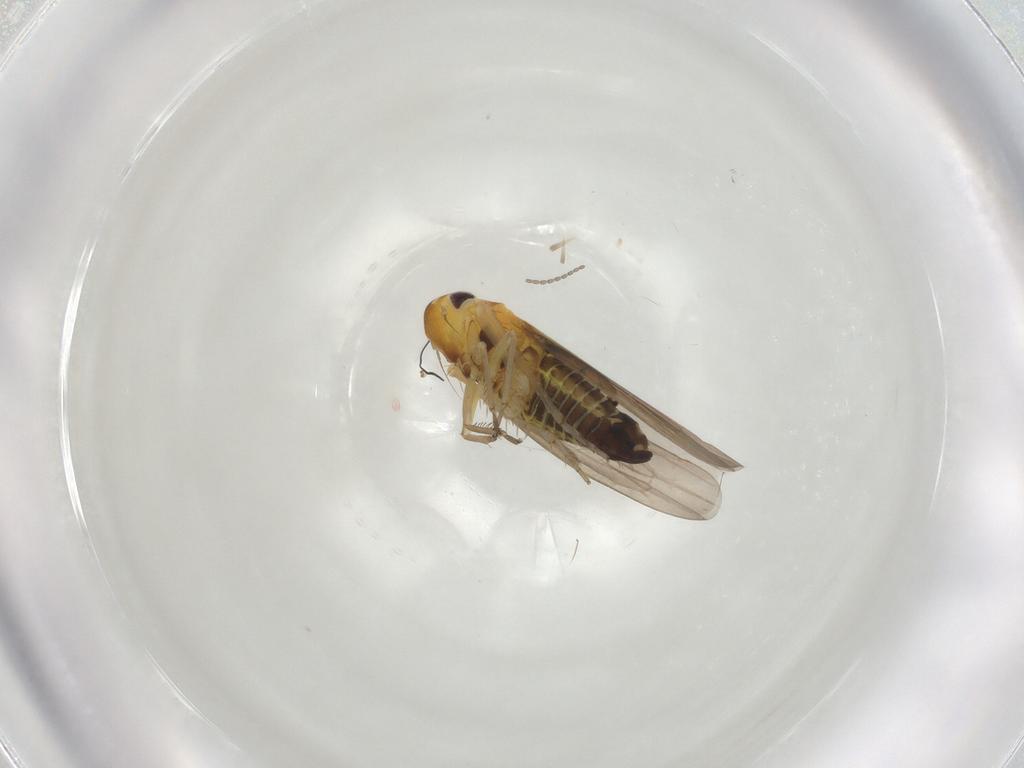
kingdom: Animalia
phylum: Arthropoda
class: Insecta
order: Hemiptera
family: Cicadellidae
